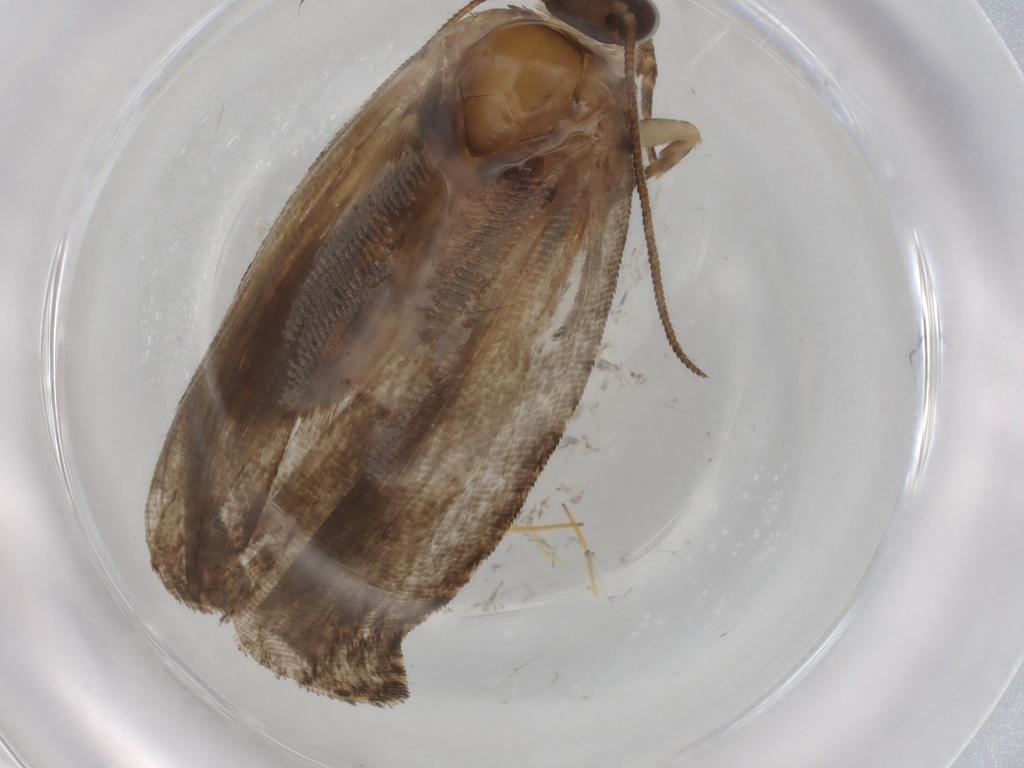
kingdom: Animalia
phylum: Arthropoda
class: Insecta
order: Lepidoptera
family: Tortricidae
